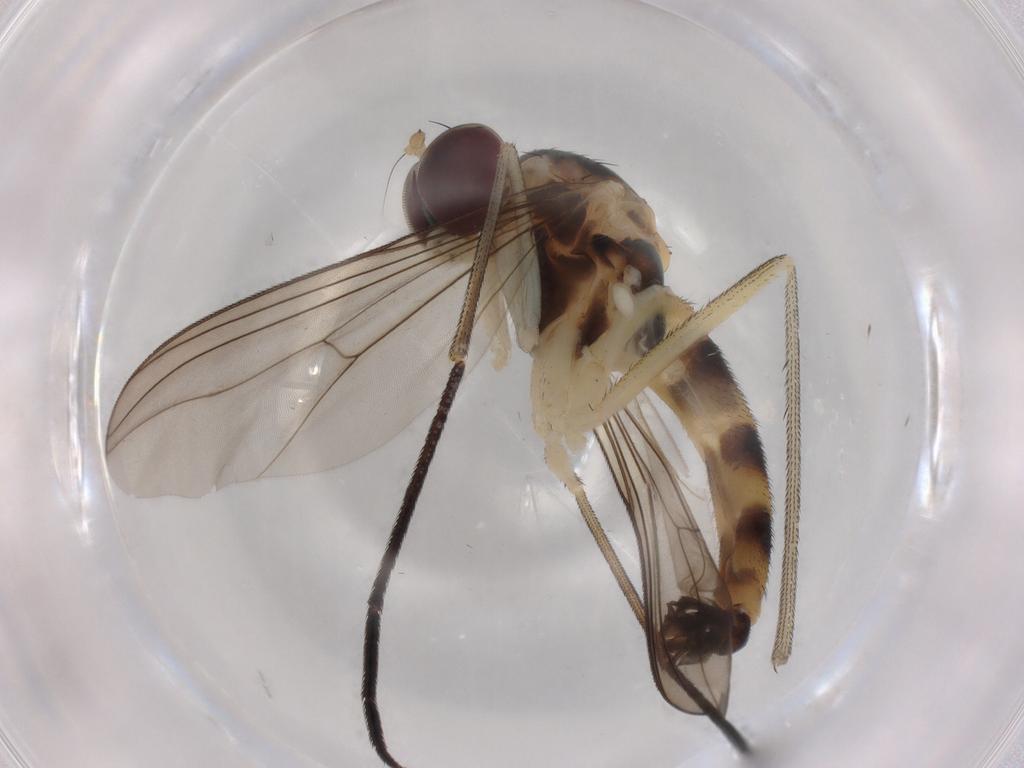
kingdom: Animalia
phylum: Arthropoda
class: Insecta
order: Diptera
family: Chironomidae
